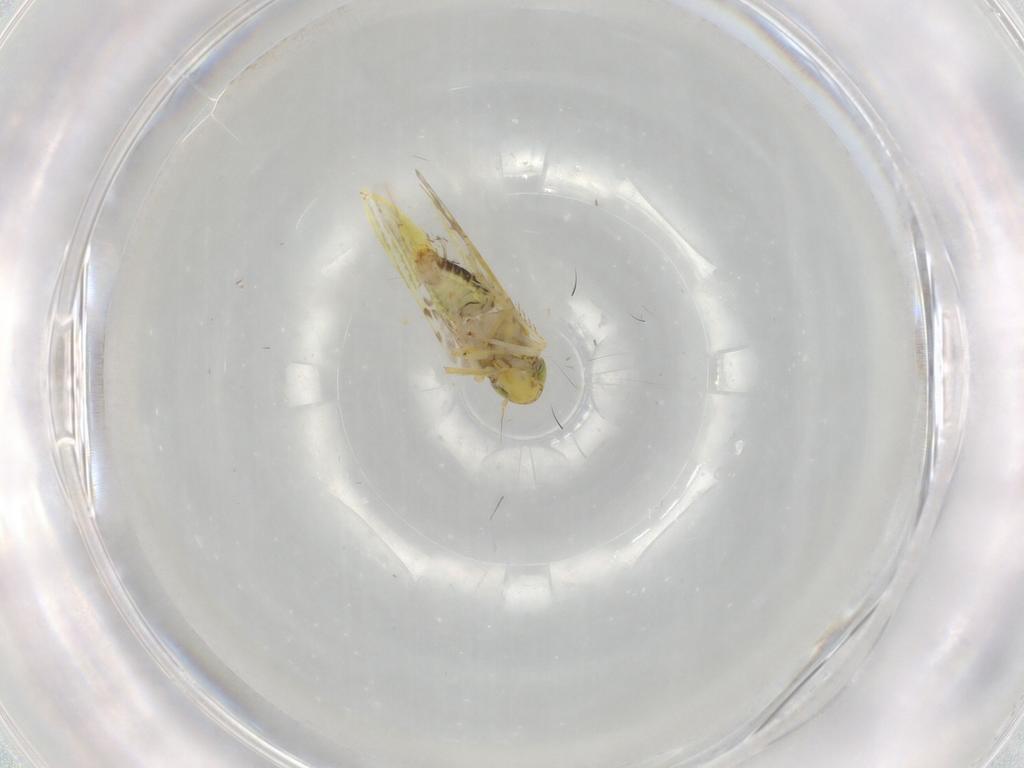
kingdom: Animalia
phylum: Arthropoda
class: Insecta
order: Hemiptera
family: Cicadellidae
